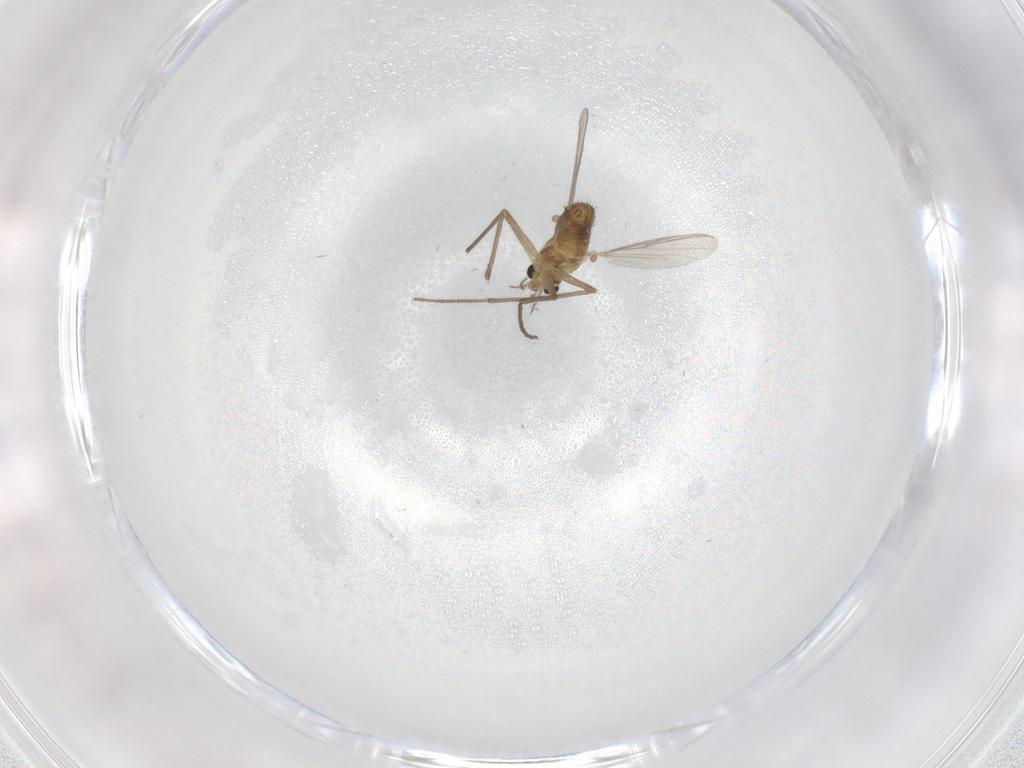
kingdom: Animalia
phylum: Arthropoda
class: Insecta
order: Diptera
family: Chironomidae
